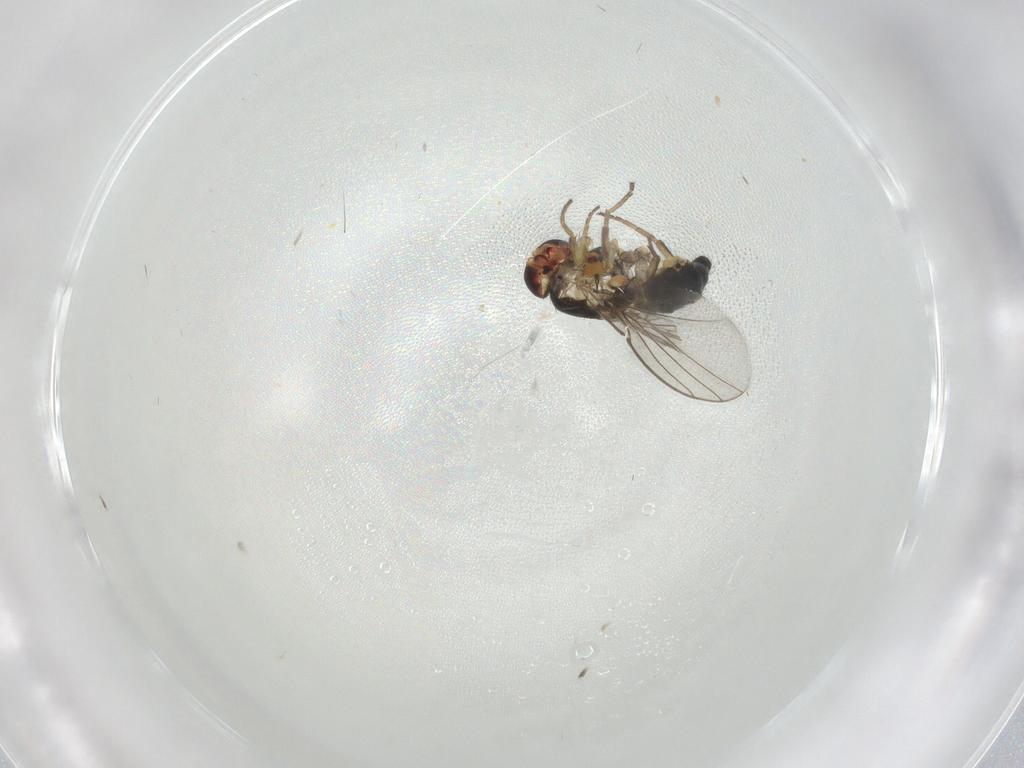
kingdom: Animalia
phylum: Arthropoda
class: Insecta
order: Diptera
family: Agromyzidae
